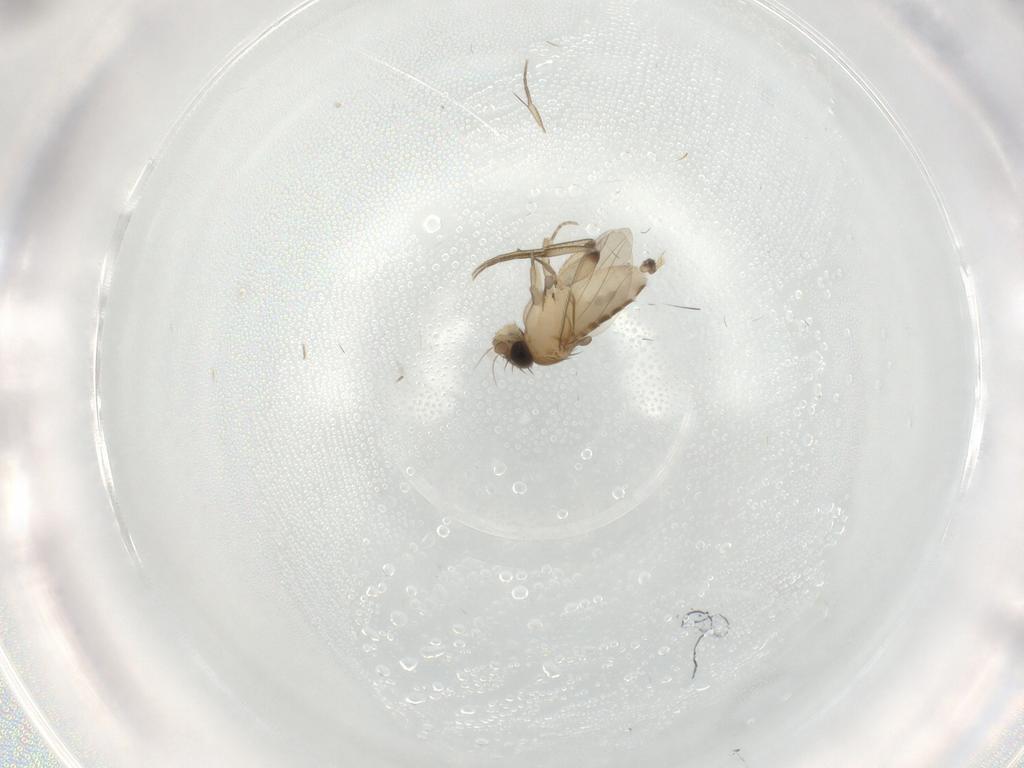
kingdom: Animalia
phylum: Arthropoda
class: Insecta
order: Diptera
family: Phoridae
